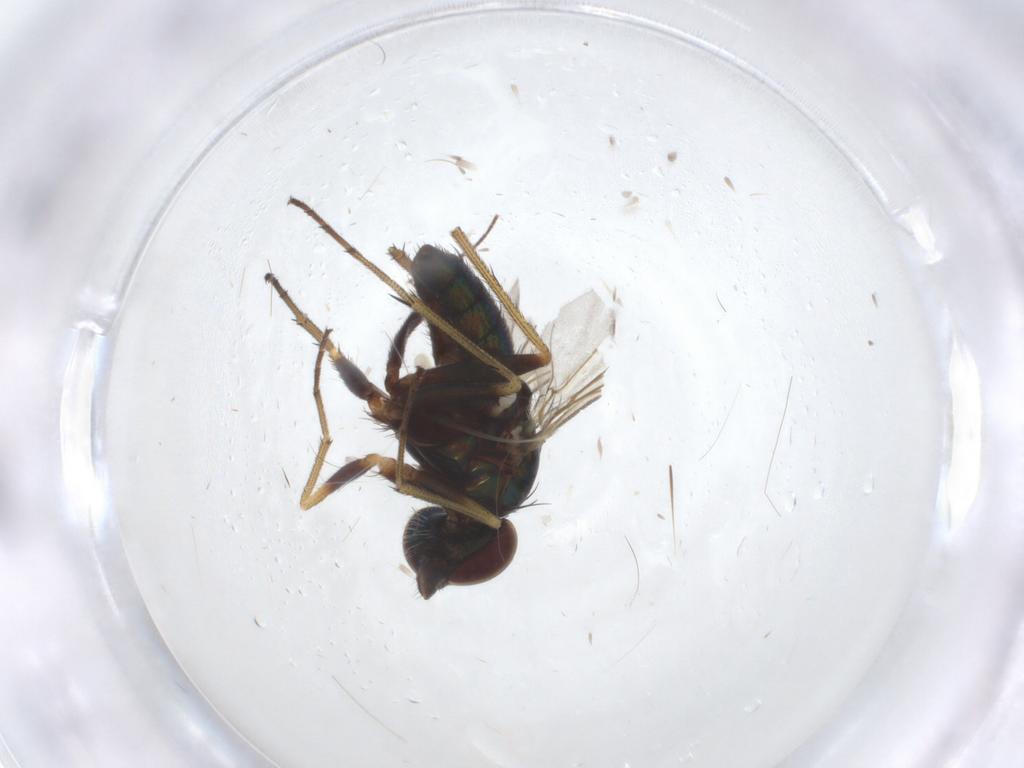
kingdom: Animalia
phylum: Arthropoda
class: Insecta
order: Diptera
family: Dolichopodidae
